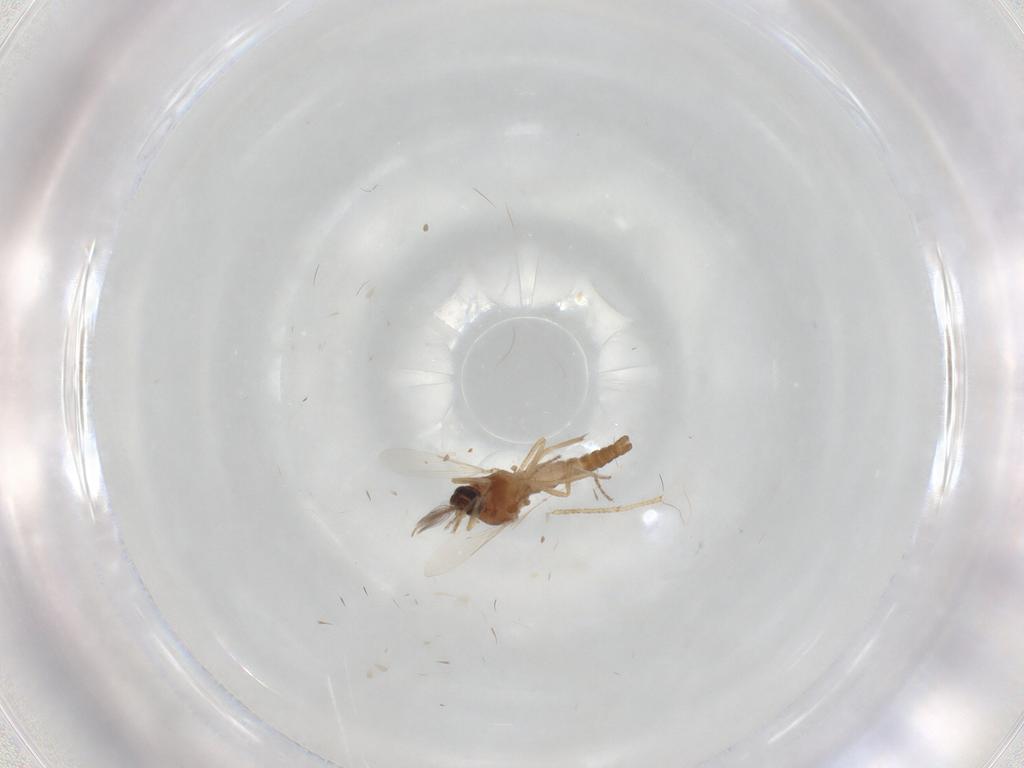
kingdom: Animalia
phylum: Arthropoda
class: Insecta
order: Diptera
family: Ceratopogonidae
